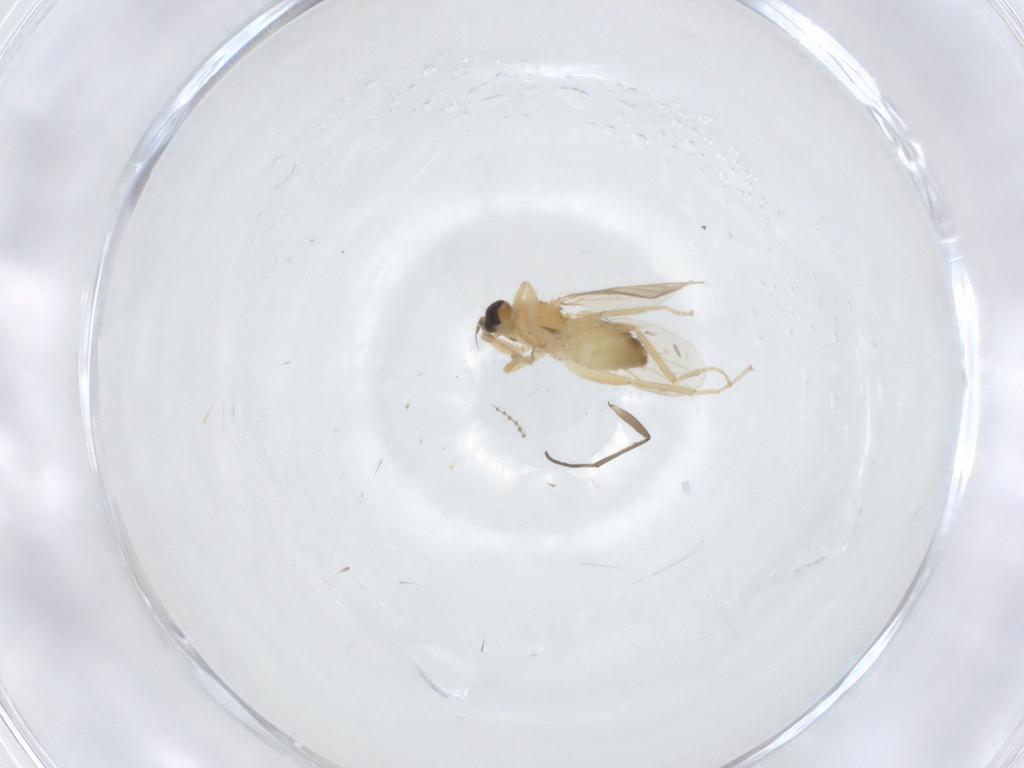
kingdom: Animalia
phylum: Arthropoda
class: Insecta
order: Diptera
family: Hybotidae
